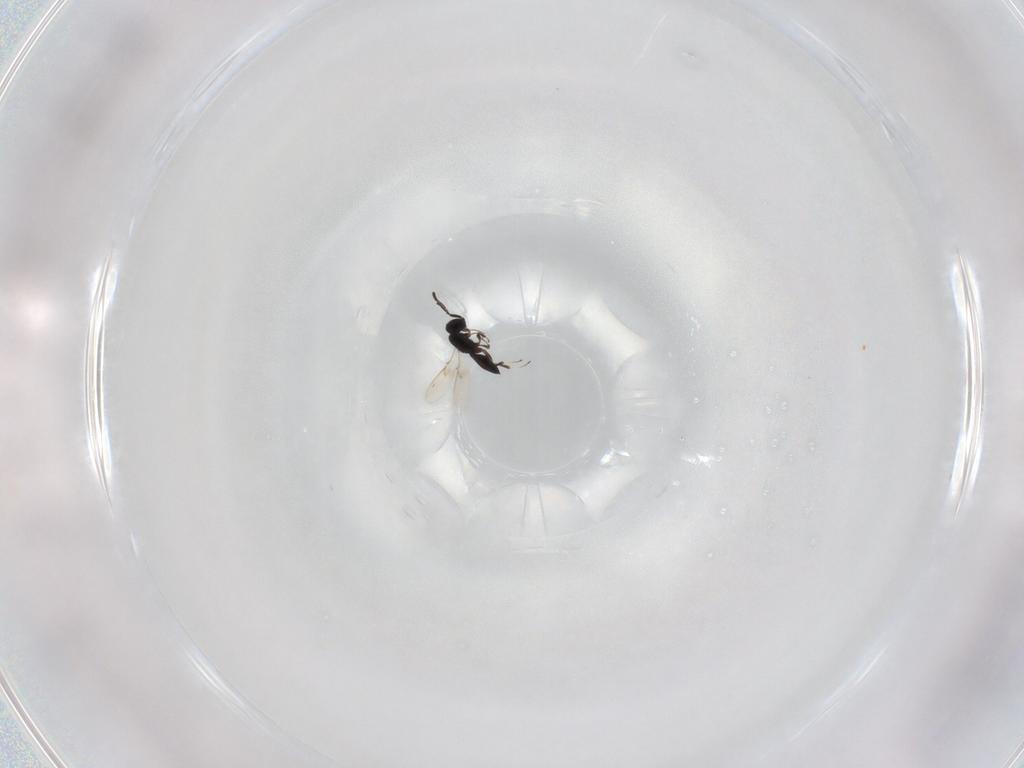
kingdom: Animalia
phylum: Arthropoda
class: Insecta
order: Hymenoptera
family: Scelionidae
